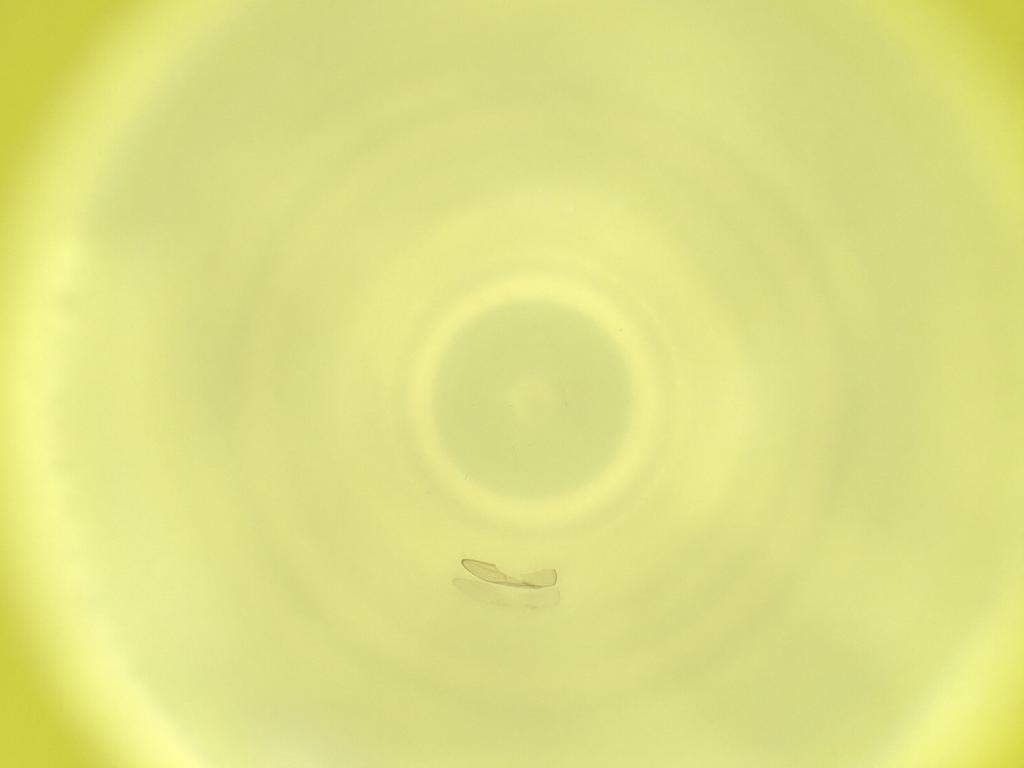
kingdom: Animalia
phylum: Arthropoda
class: Insecta
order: Diptera
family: Cecidomyiidae
